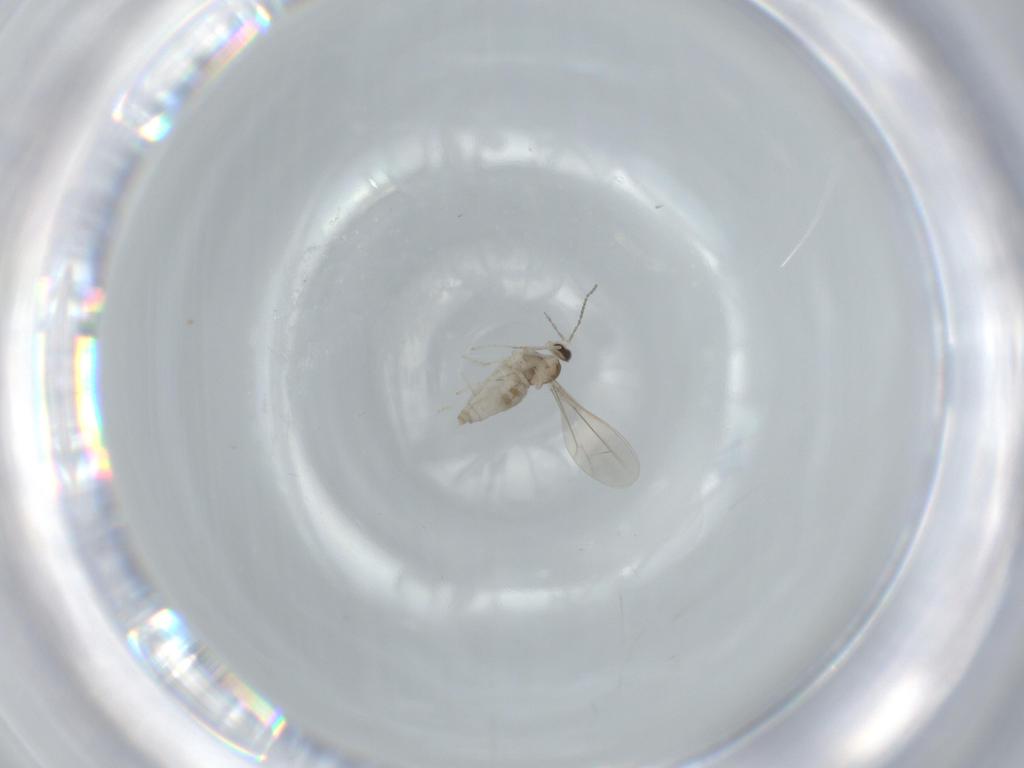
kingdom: Animalia
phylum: Arthropoda
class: Insecta
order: Diptera
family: Cecidomyiidae
